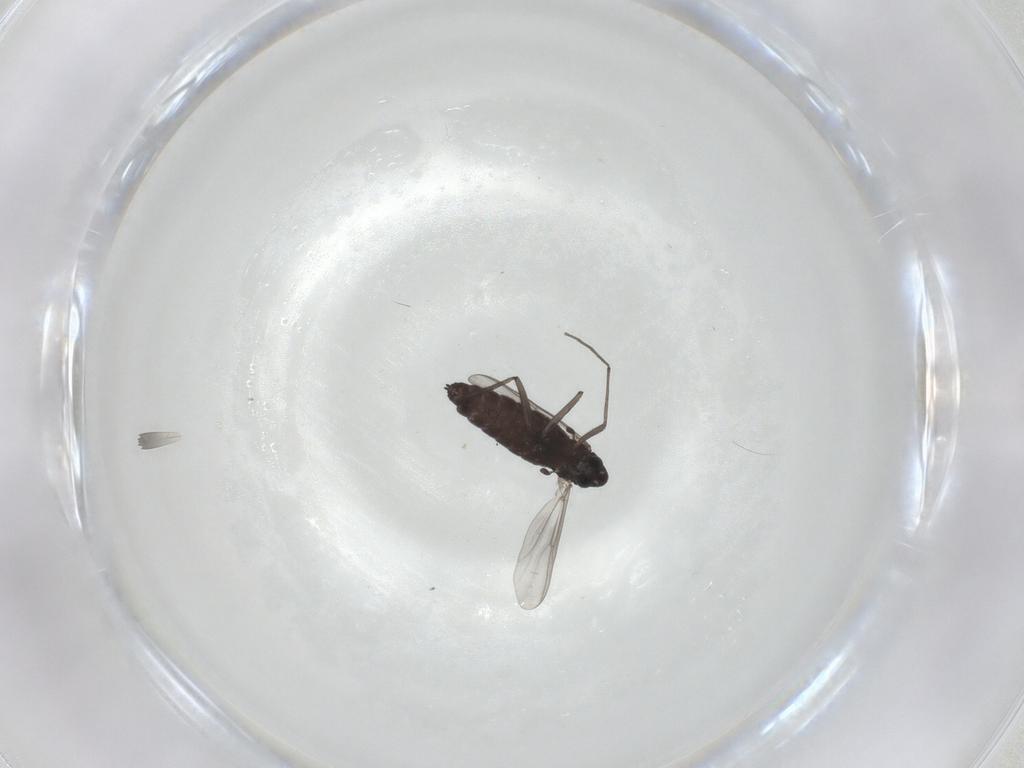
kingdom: Animalia
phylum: Arthropoda
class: Insecta
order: Diptera
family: Chironomidae
